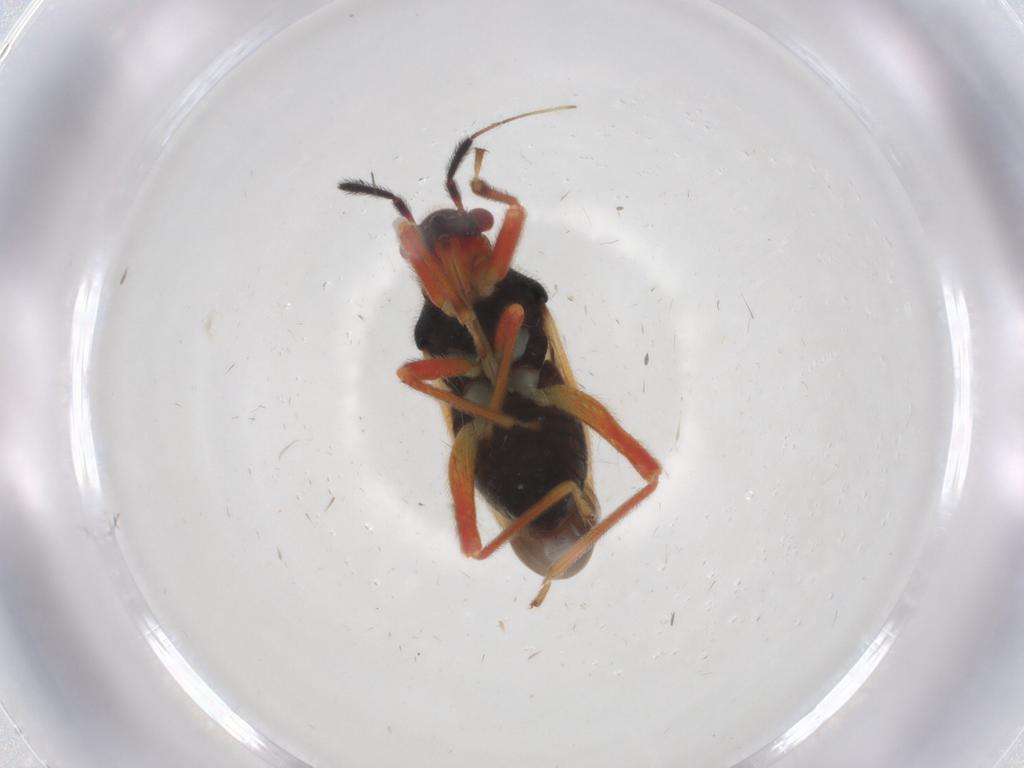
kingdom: Animalia
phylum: Arthropoda
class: Insecta
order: Hemiptera
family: Miridae
